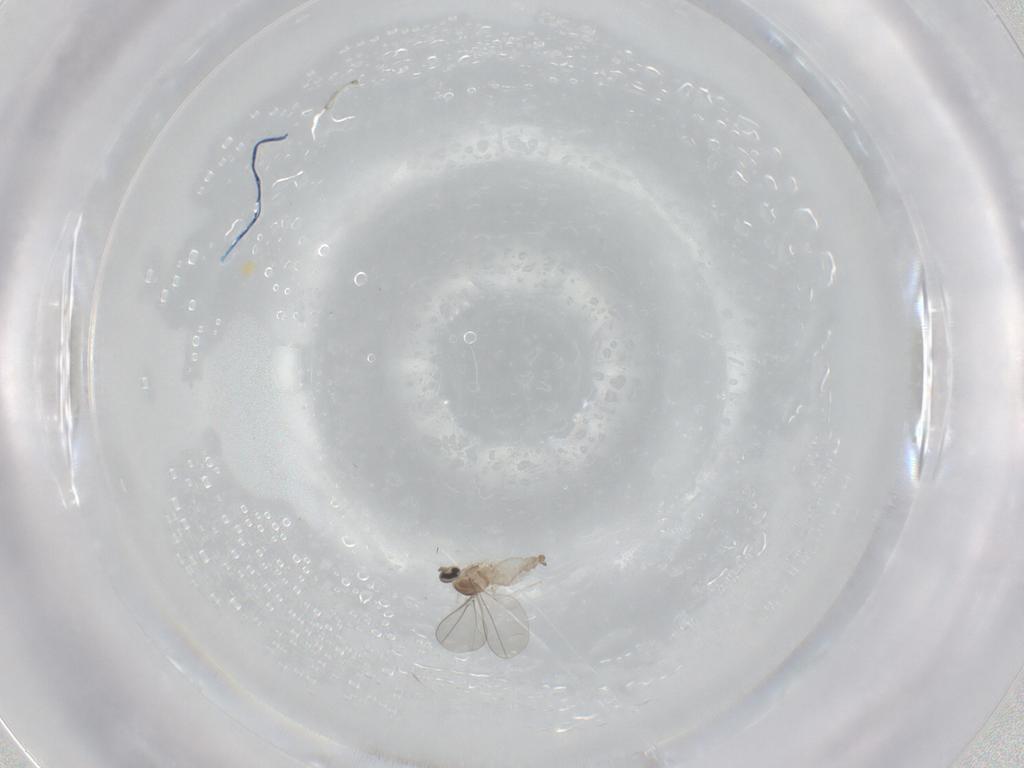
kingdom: Animalia
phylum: Arthropoda
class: Insecta
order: Diptera
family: Cecidomyiidae
